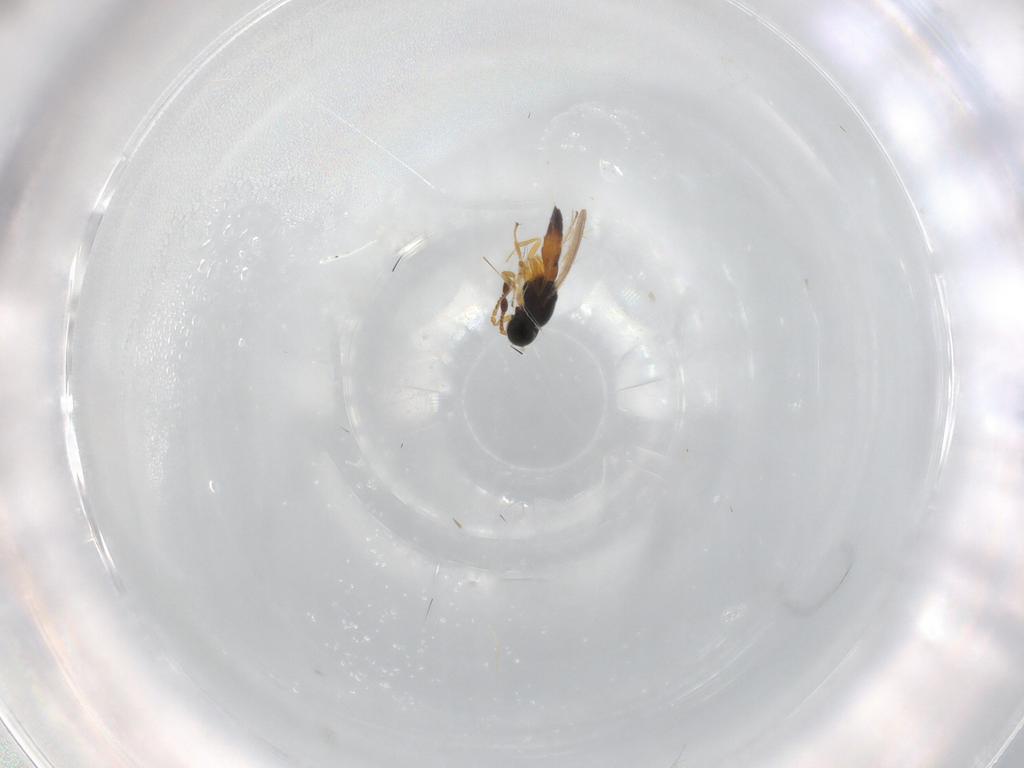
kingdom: Animalia
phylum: Arthropoda
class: Insecta
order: Hymenoptera
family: Scelionidae
